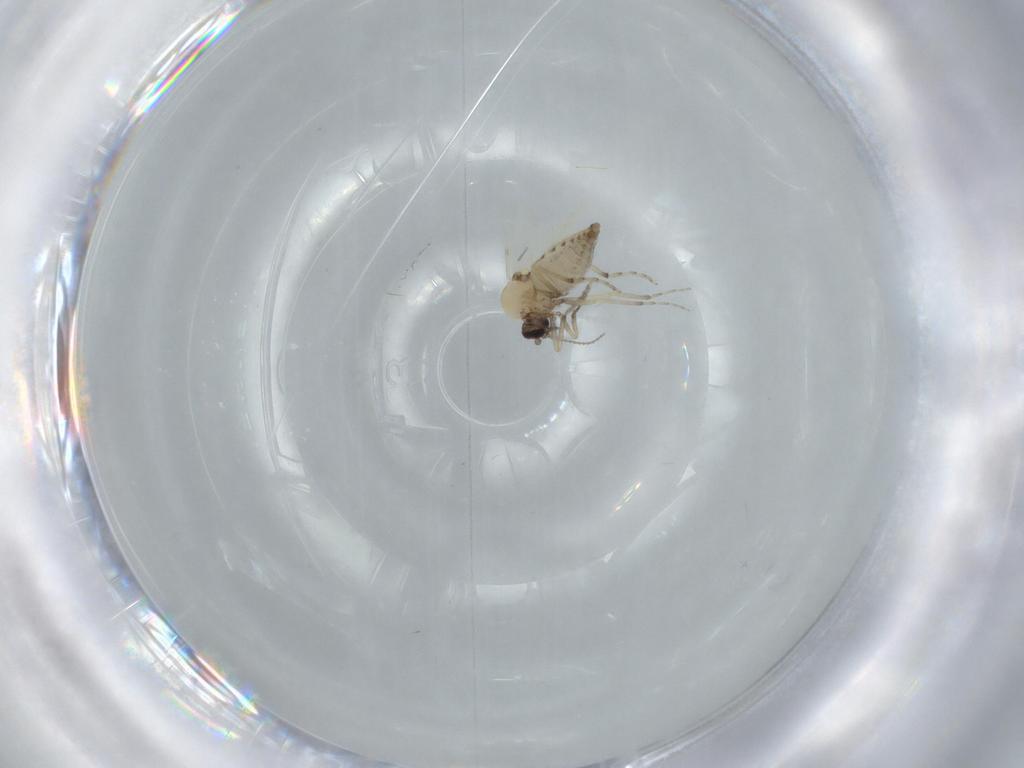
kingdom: Animalia
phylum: Arthropoda
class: Insecta
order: Diptera
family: Ceratopogonidae
